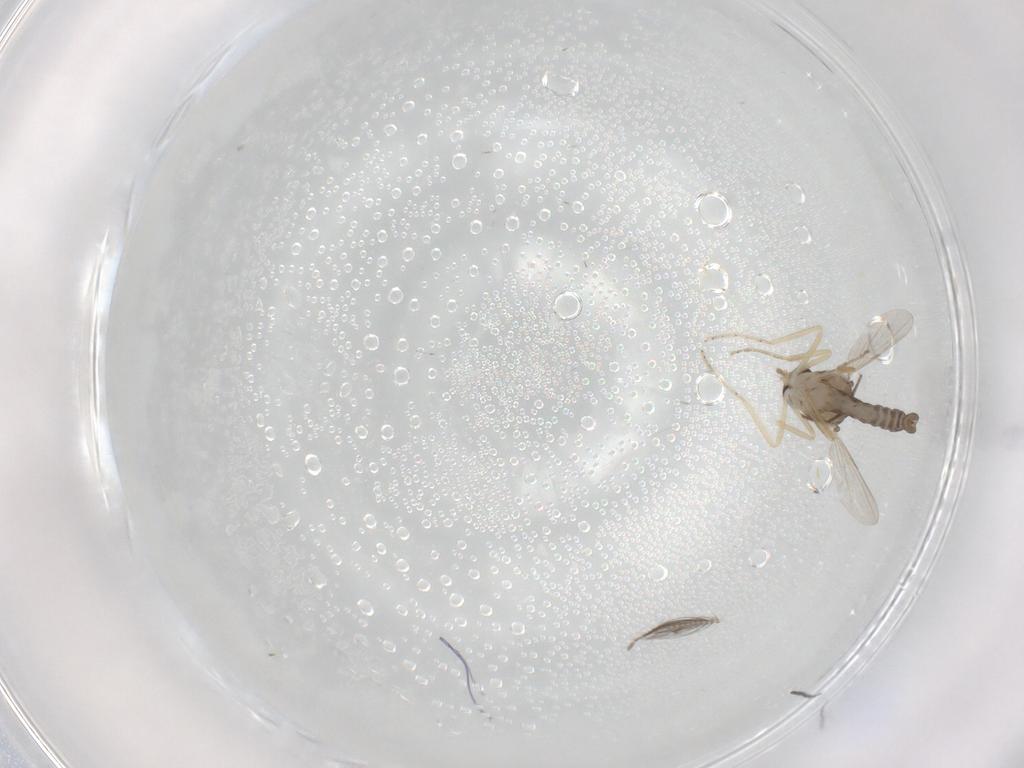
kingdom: Animalia
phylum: Arthropoda
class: Insecta
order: Diptera
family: Ceratopogonidae
